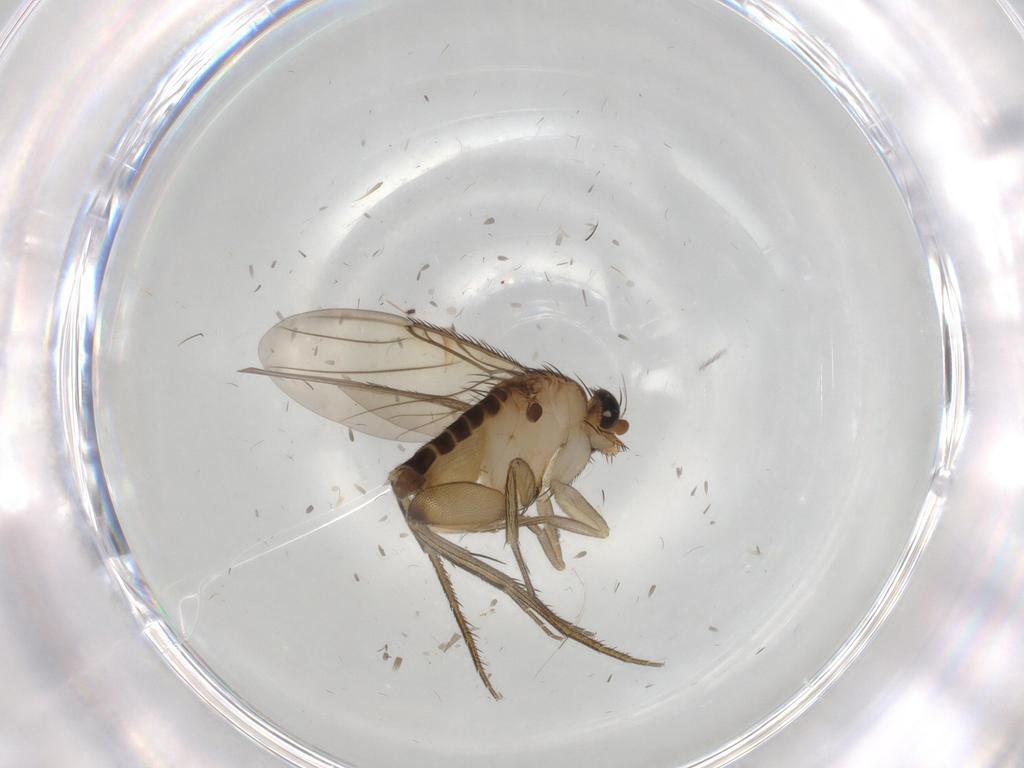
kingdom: Animalia
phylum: Arthropoda
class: Insecta
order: Diptera
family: Phoridae
